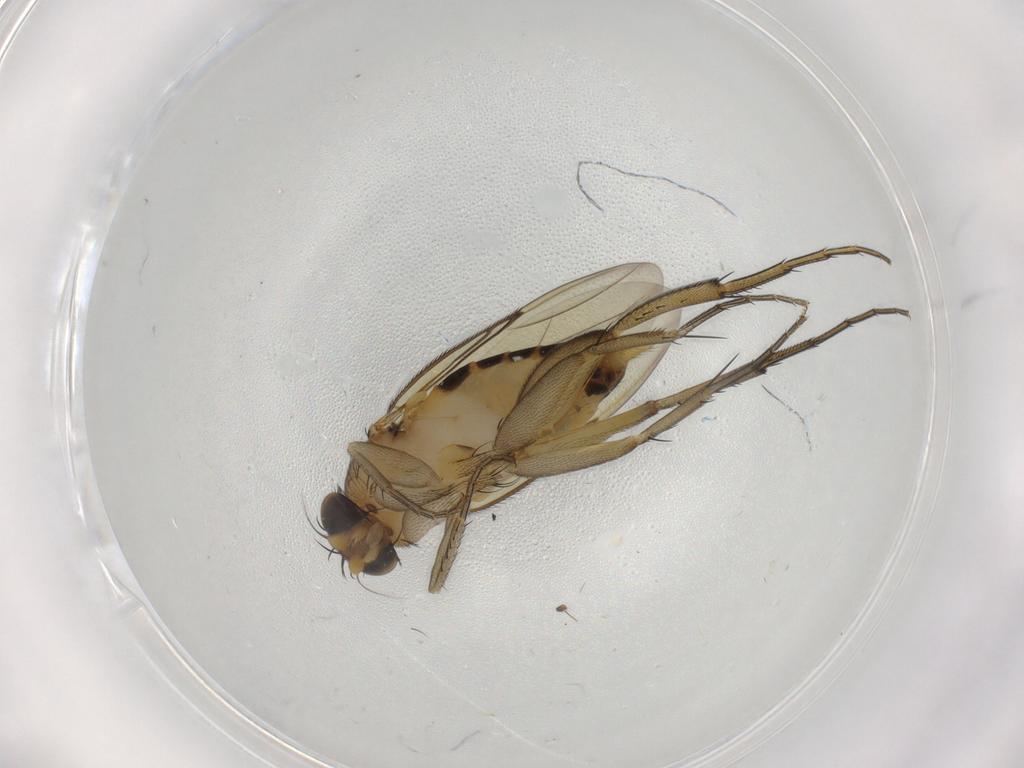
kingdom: Animalia
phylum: Arthropoda
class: Insecta
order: Diptera
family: Phoridae
